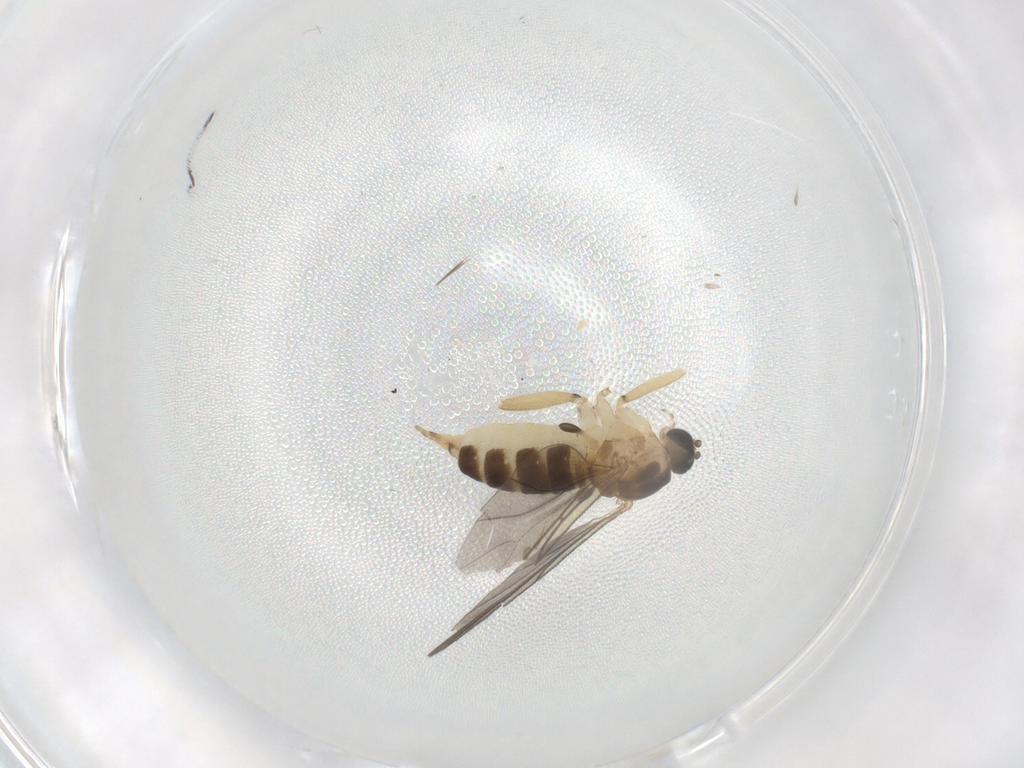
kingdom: Animalia
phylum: Arthropoda
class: Insecta
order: Diptera
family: Sciaridae
